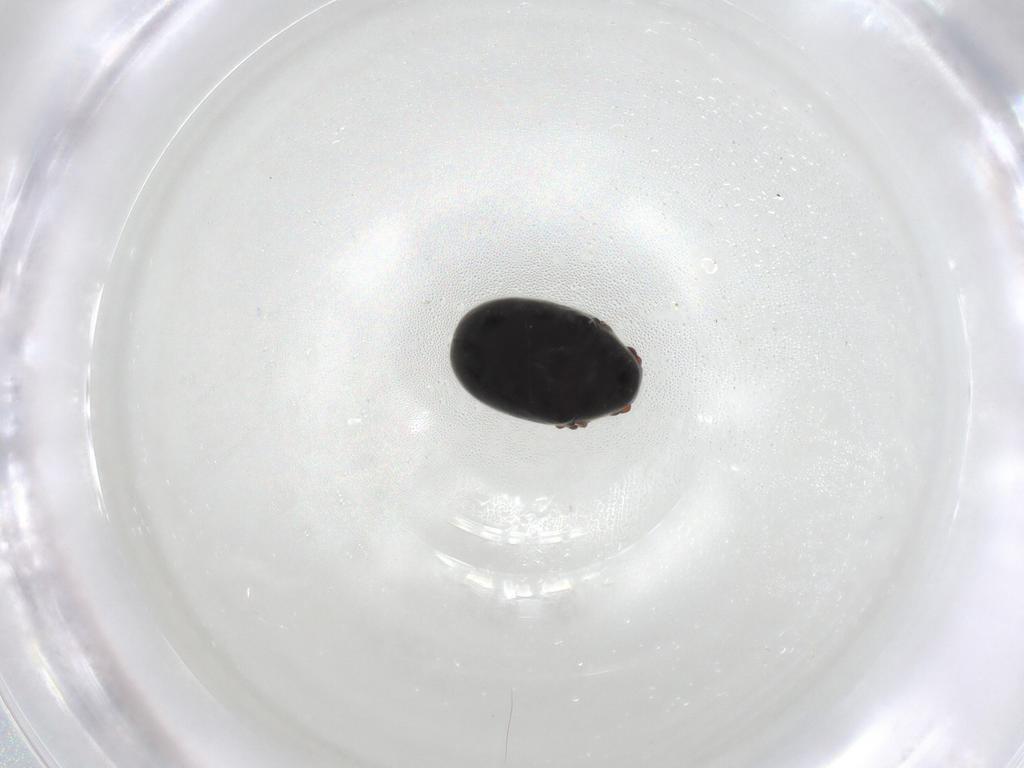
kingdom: Animalia
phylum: Arthropoda
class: Insecta
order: Coleoptera
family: Ptinidae
